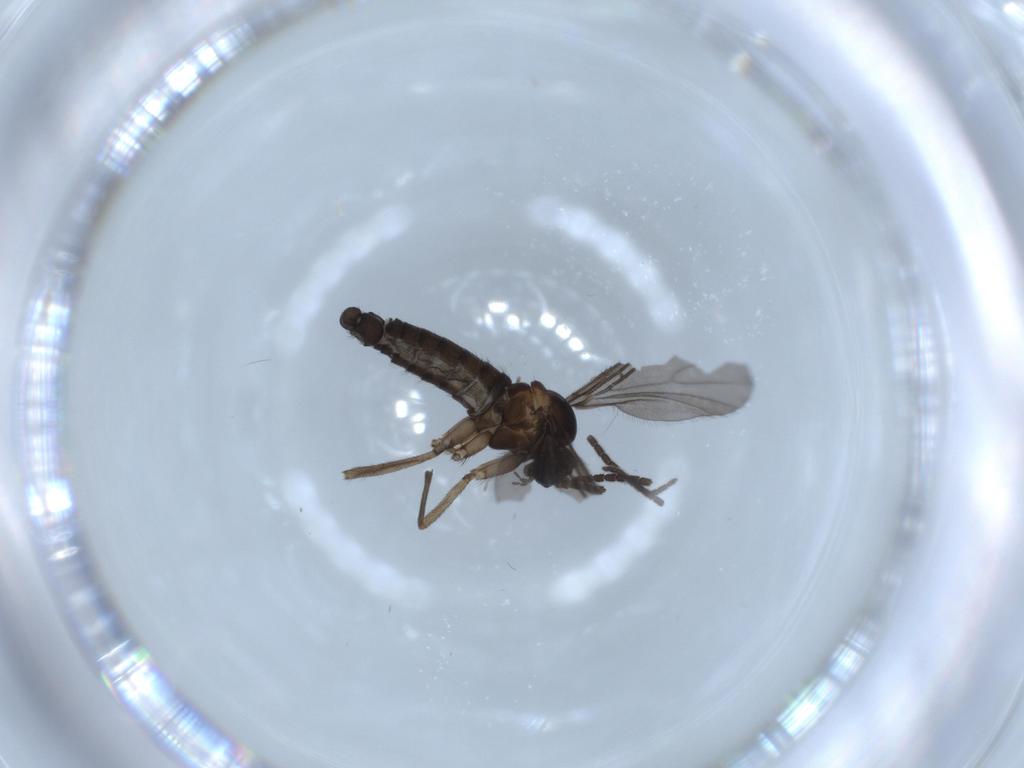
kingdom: Animalia
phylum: Arthropoda
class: Insecta
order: Diptera
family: Sciaridae
